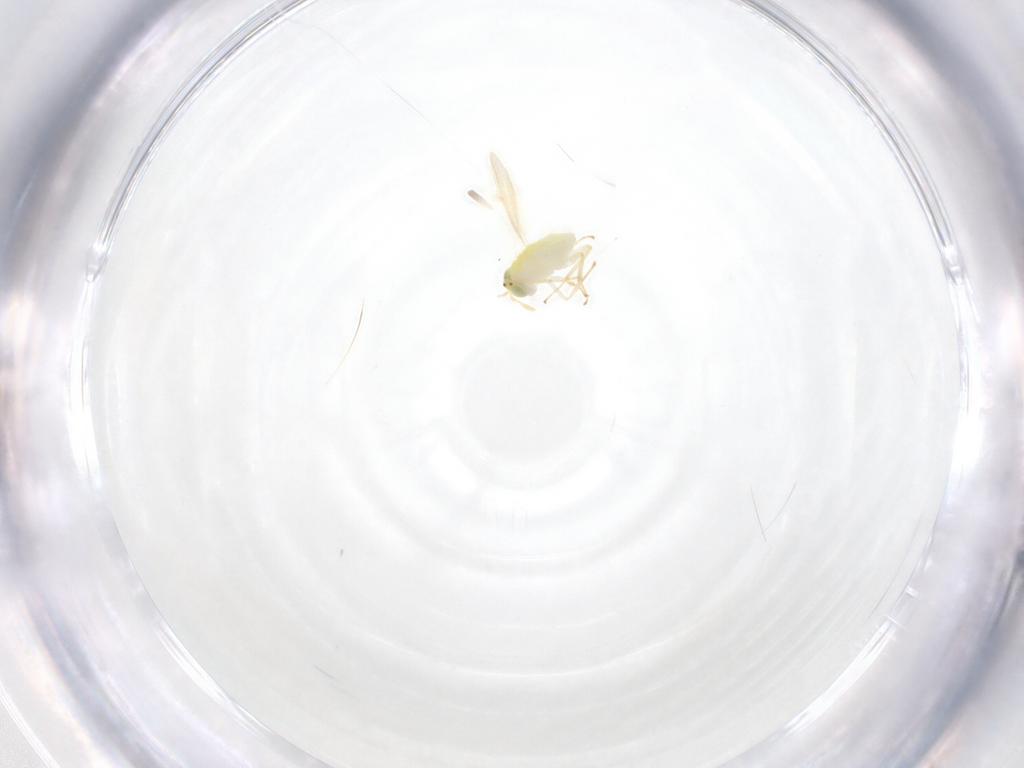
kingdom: Animalia
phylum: Arthropoda
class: Insecta
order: Hymenoptera
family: Aphelinidae
